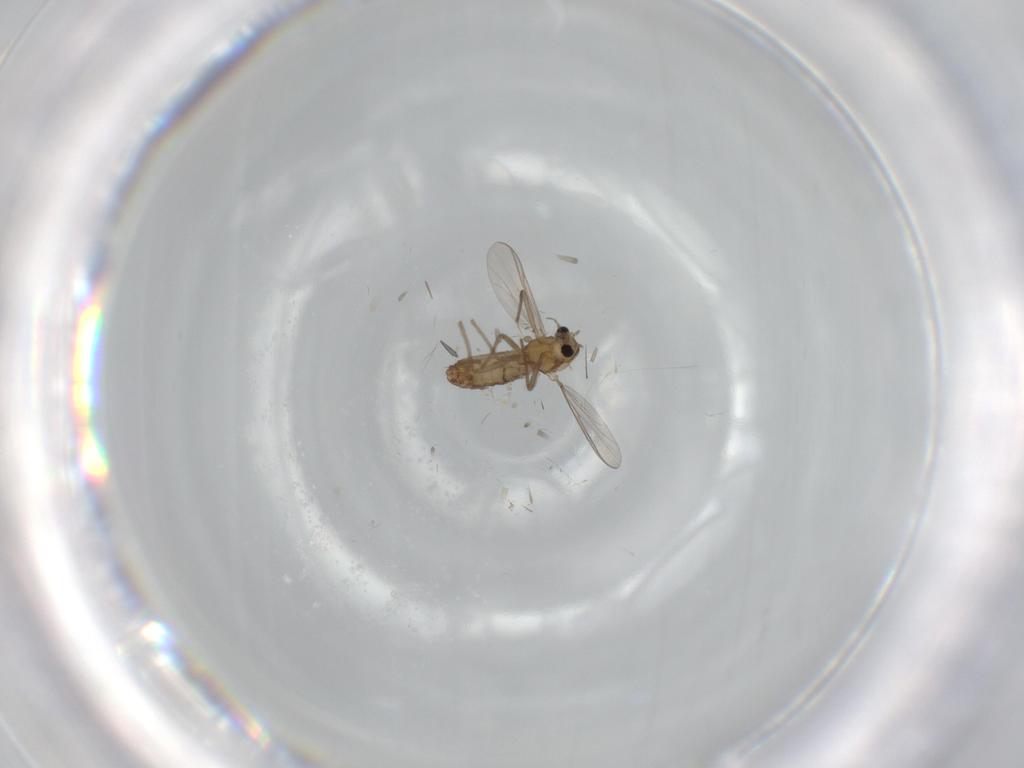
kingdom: Animalia
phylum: Arthropoda
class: Insecta
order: Diptera
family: Chironomidae
